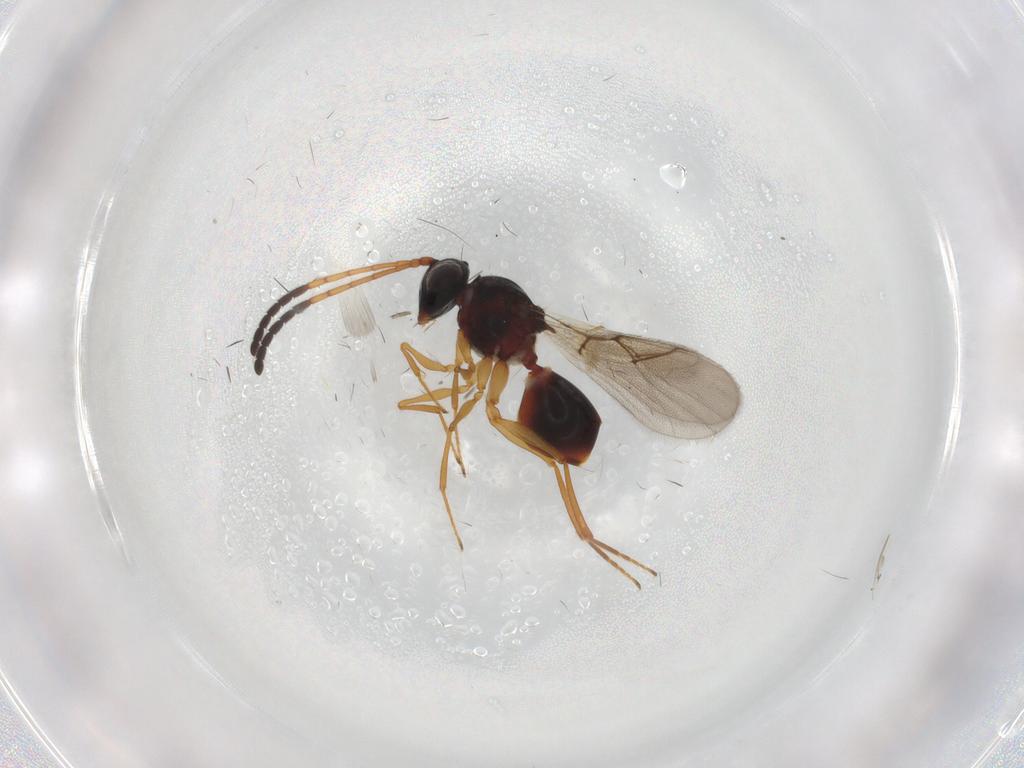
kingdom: Animalia
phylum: Arthropoda
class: Insecta
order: Hymenoptera
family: Figitidae
